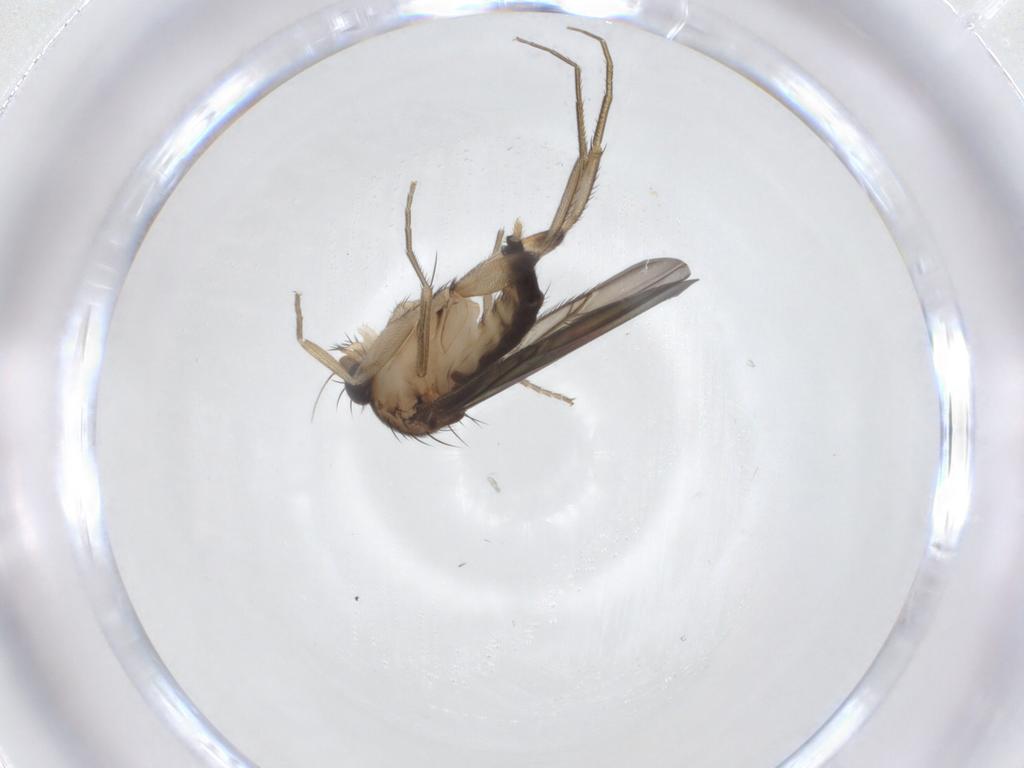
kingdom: Animalia
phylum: Arthropoda
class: Insecta
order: Diptera
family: Phoridae
